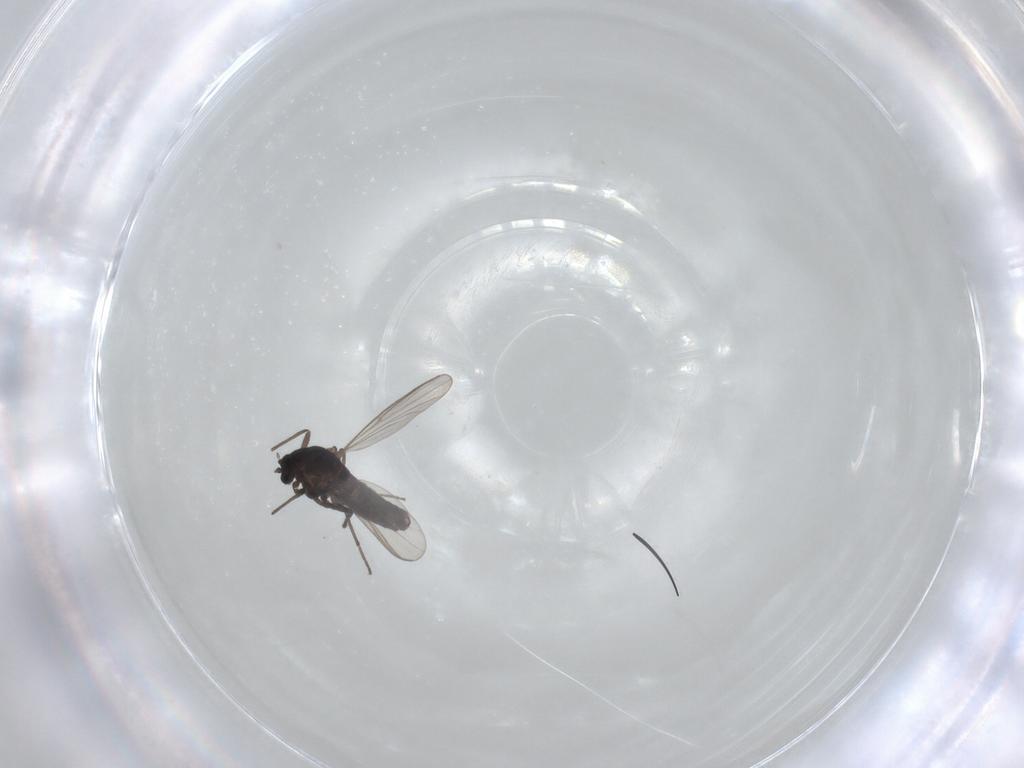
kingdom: Animalia
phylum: Arthropoda
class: Insecta
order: Diptera
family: Chironomidae
